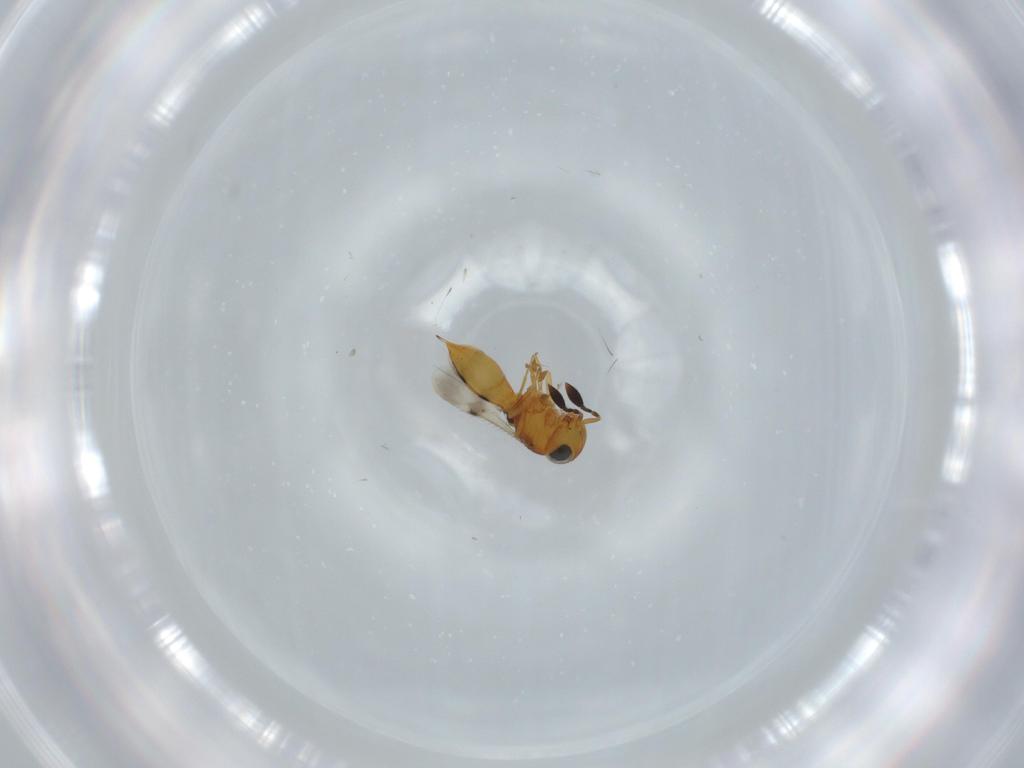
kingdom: Animalia
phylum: Arthropoda
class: Insecta
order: Hymenoptera
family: Scelionidae
